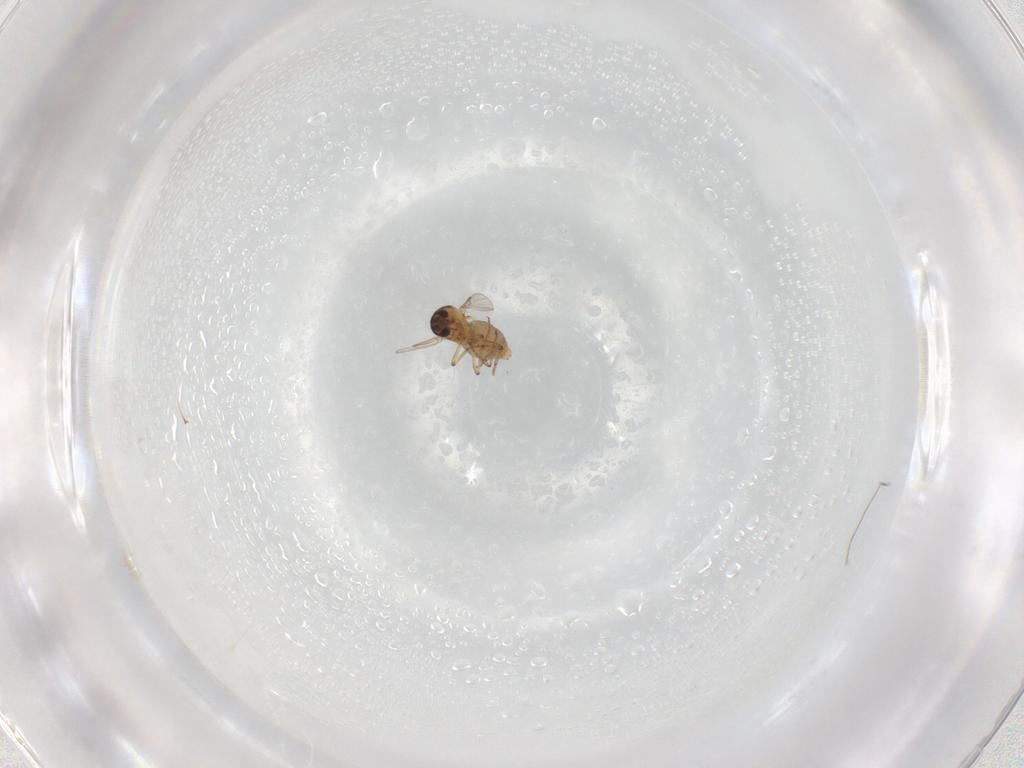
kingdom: Animalia
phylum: Arthropoda
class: Insecta
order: Diptera
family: Ceratopogonidae
